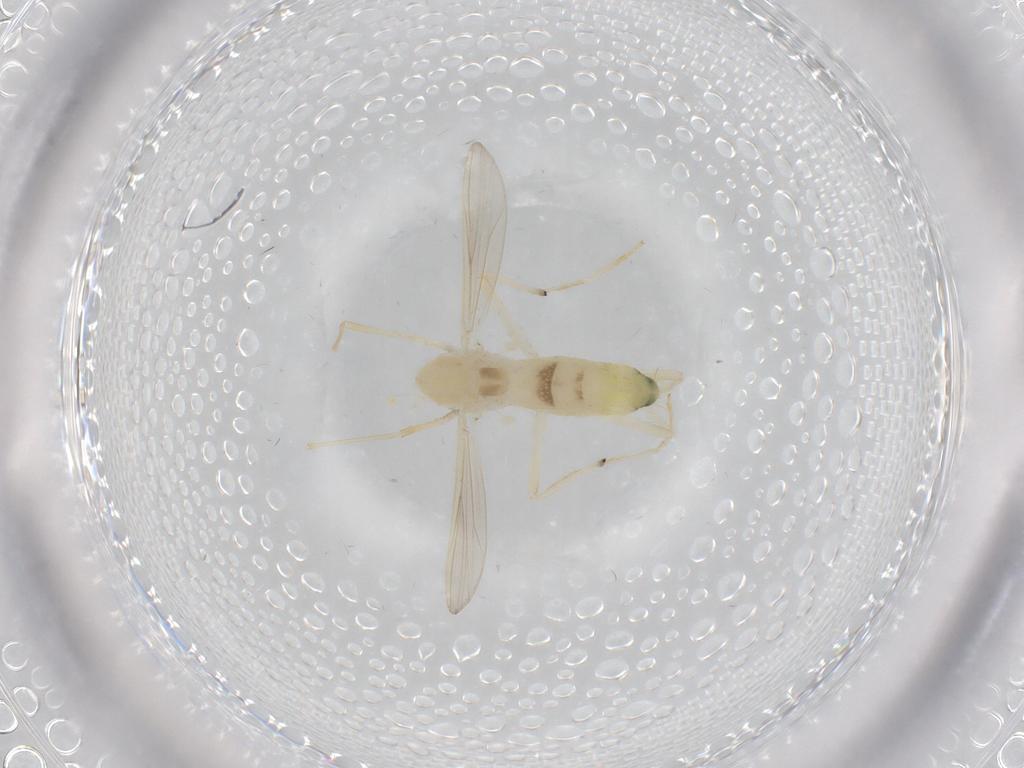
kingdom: Animalia
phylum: Arthropoda
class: Insecta
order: Diptera
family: Chironomidae
